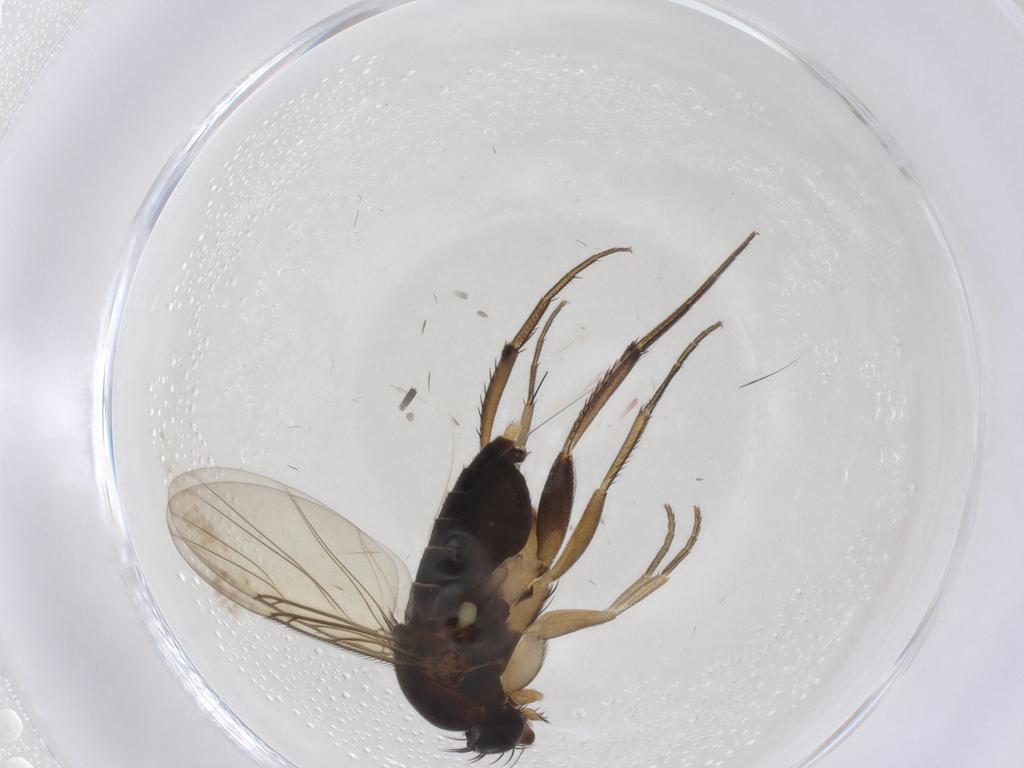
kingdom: Animalia
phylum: Arthropoda
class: Insecta
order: Diptera
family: Phoridae
